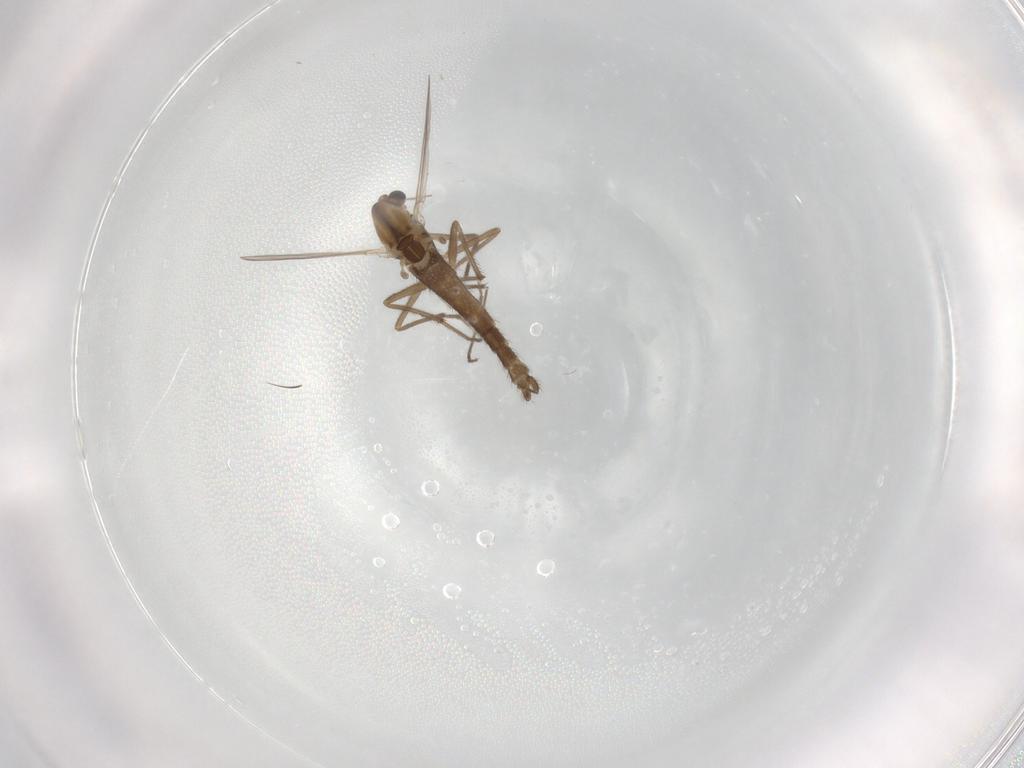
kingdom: Animalia
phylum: Arthropoda
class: Insecta
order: Diptera
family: Chironomidae
